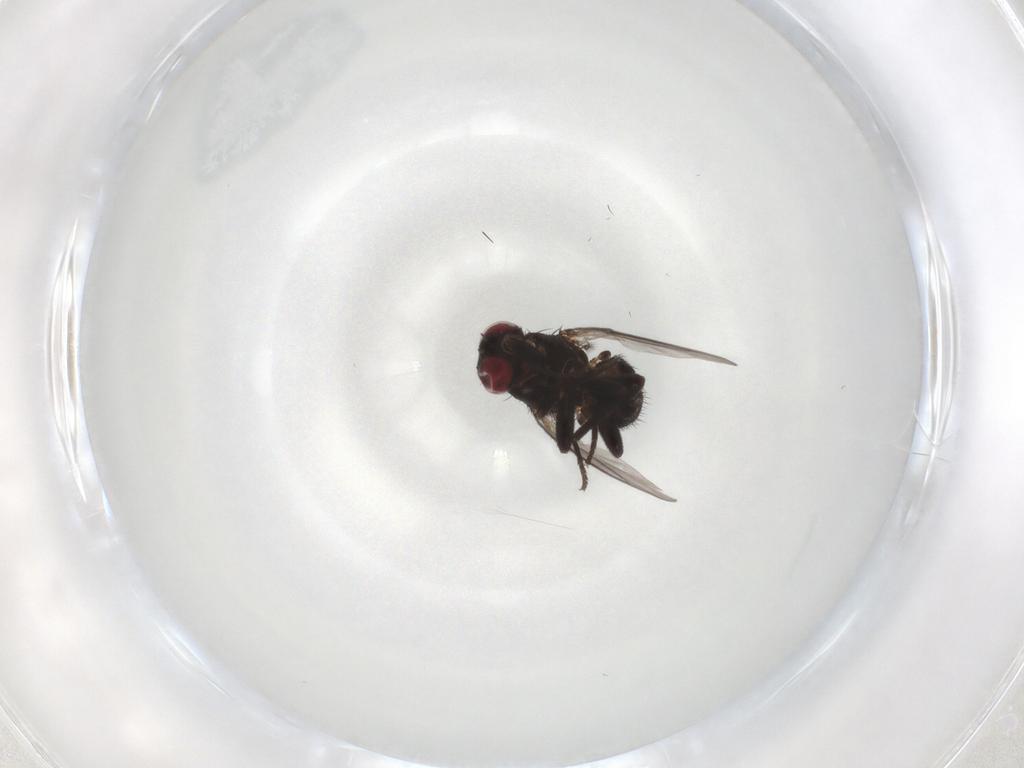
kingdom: Animalia
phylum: Arthropoda
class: Insecta
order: Diptera
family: Agromyzidae
